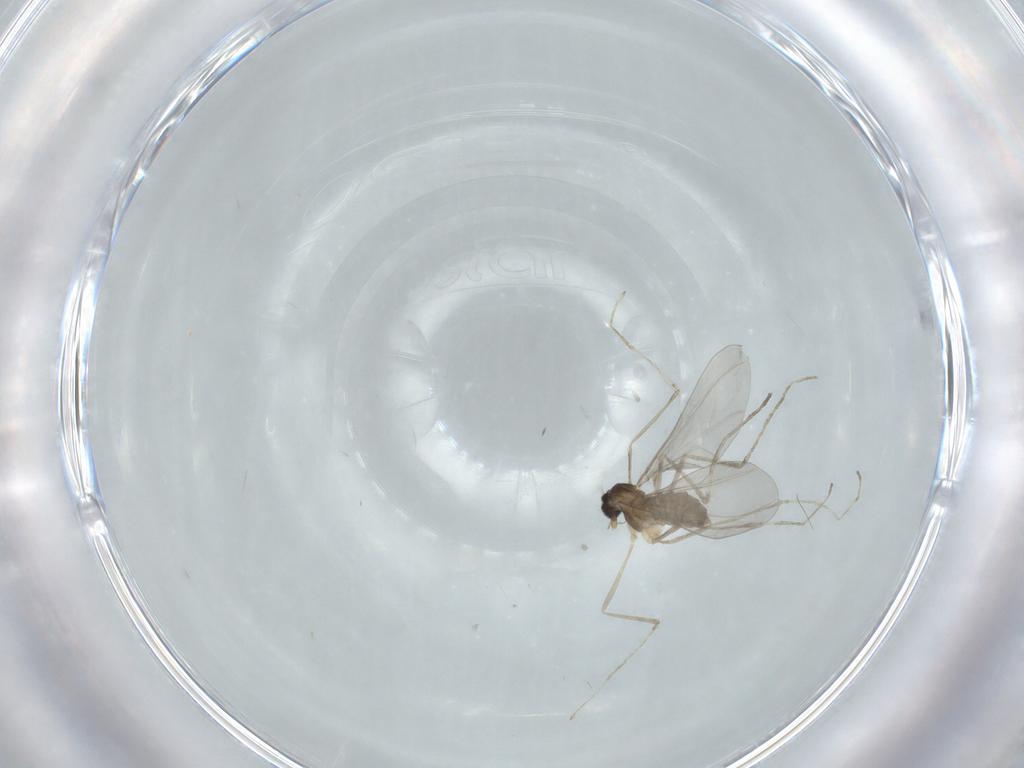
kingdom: Animalia
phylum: Arthropoda
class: Insecta
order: Diptera
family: Cecidomyiidae
